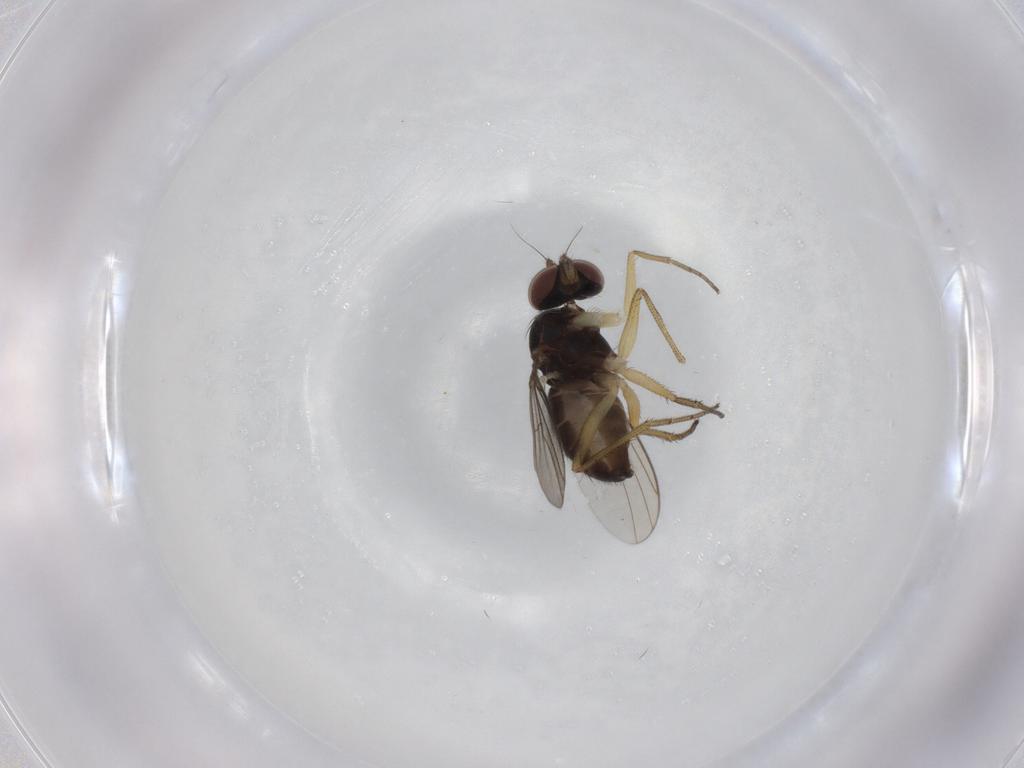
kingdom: Animalia
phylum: Arthropoda
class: Insecta
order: Diptera
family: Dolichopodidae
